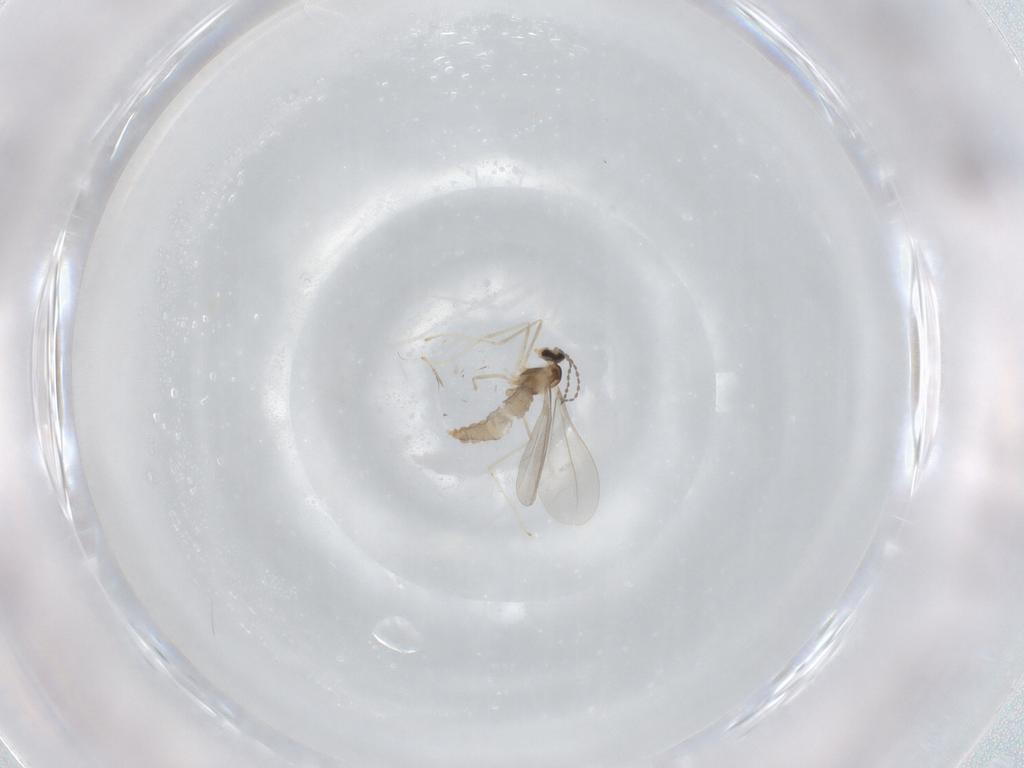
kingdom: Animalia
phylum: Arthropoda
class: Insecta
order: Diptera
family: Cecidomyiidae
